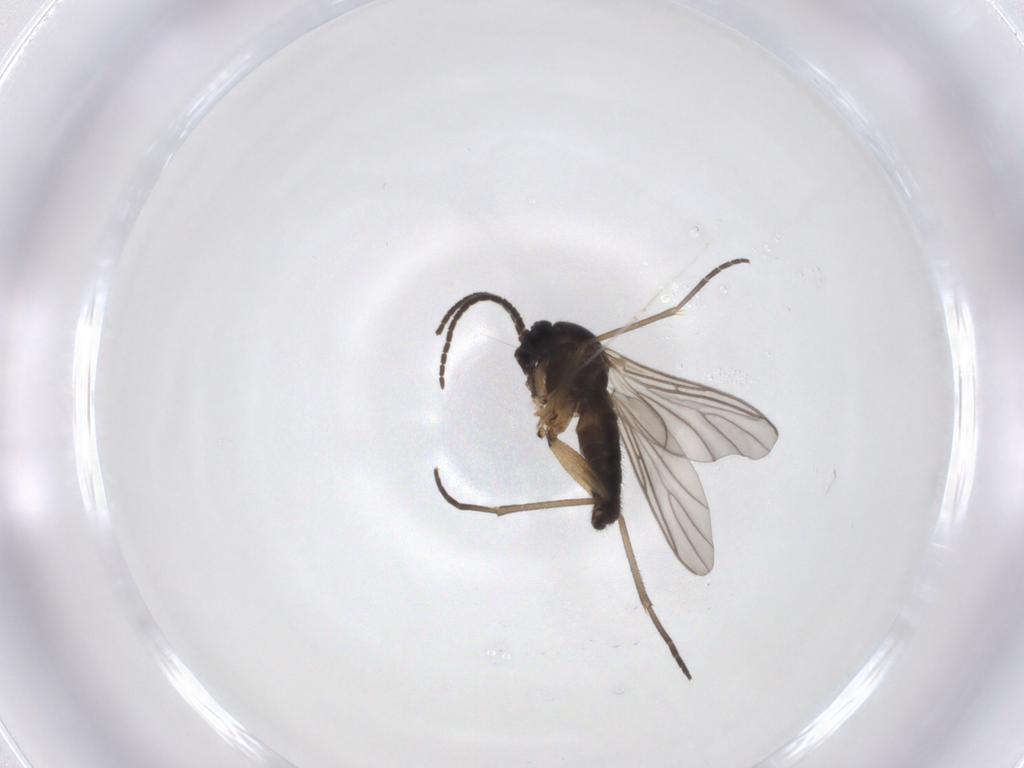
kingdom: Animalia
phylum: Arthropoda
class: Insecta
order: Diptera
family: Sciaridae
